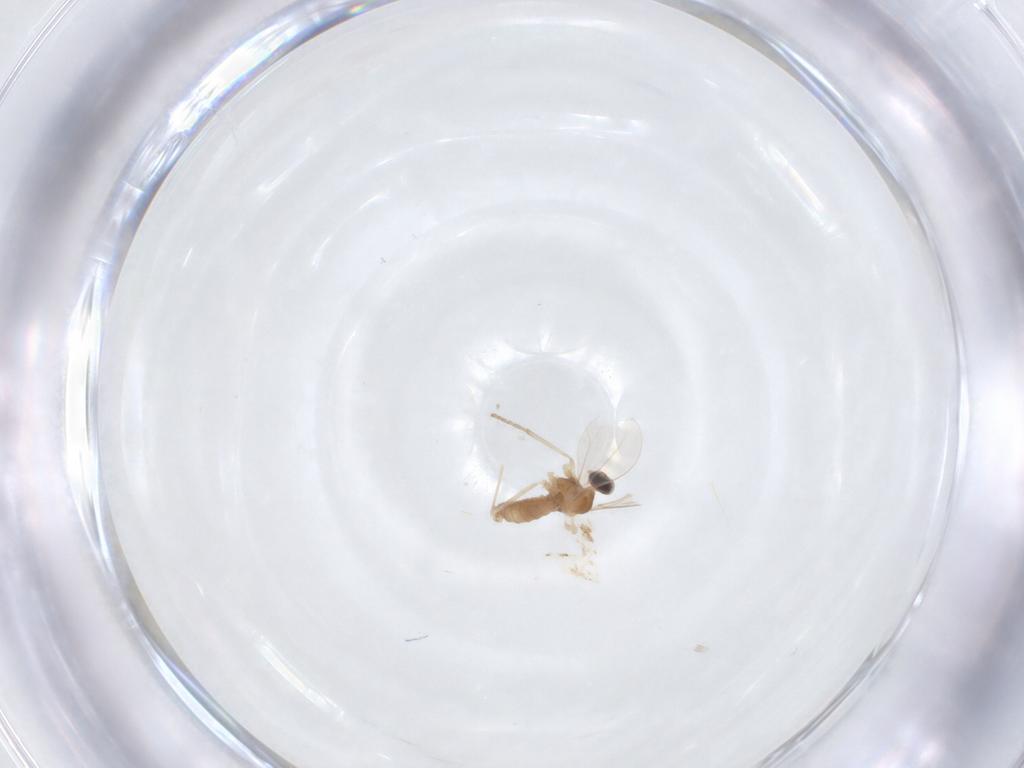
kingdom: Animalia
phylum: Arthropoda
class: Insecta
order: Diptera
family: Cecidomyiidae
